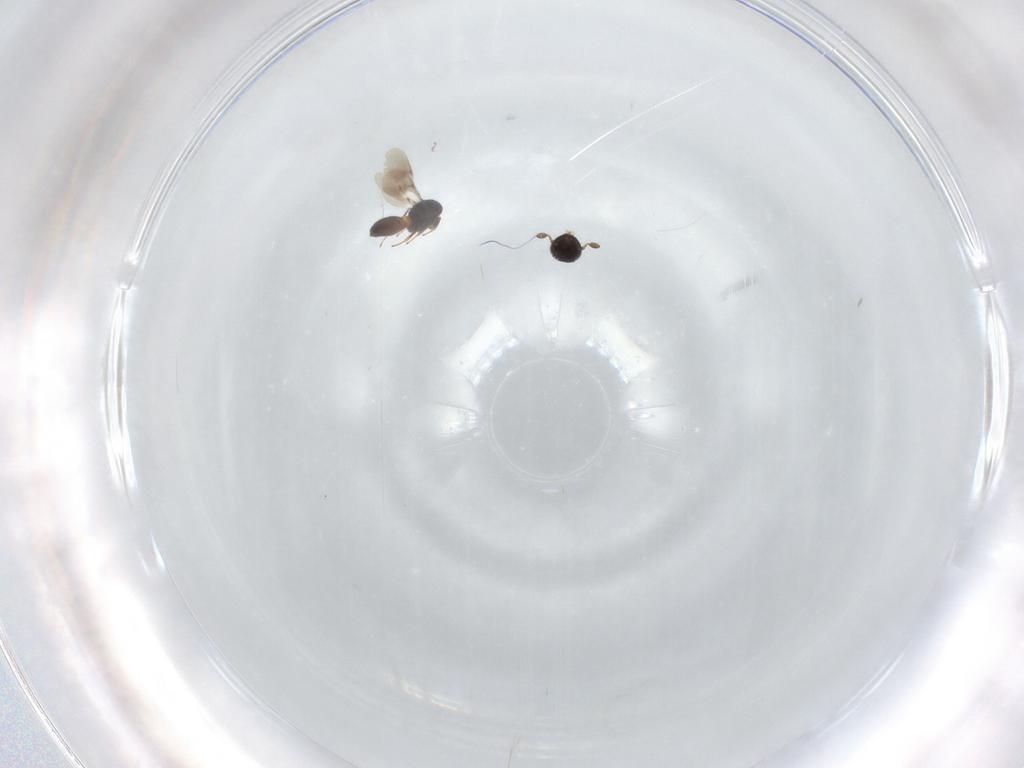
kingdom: Animalia
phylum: Arthropoda
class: Insecta
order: Hymenoptera
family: Scelionidae
